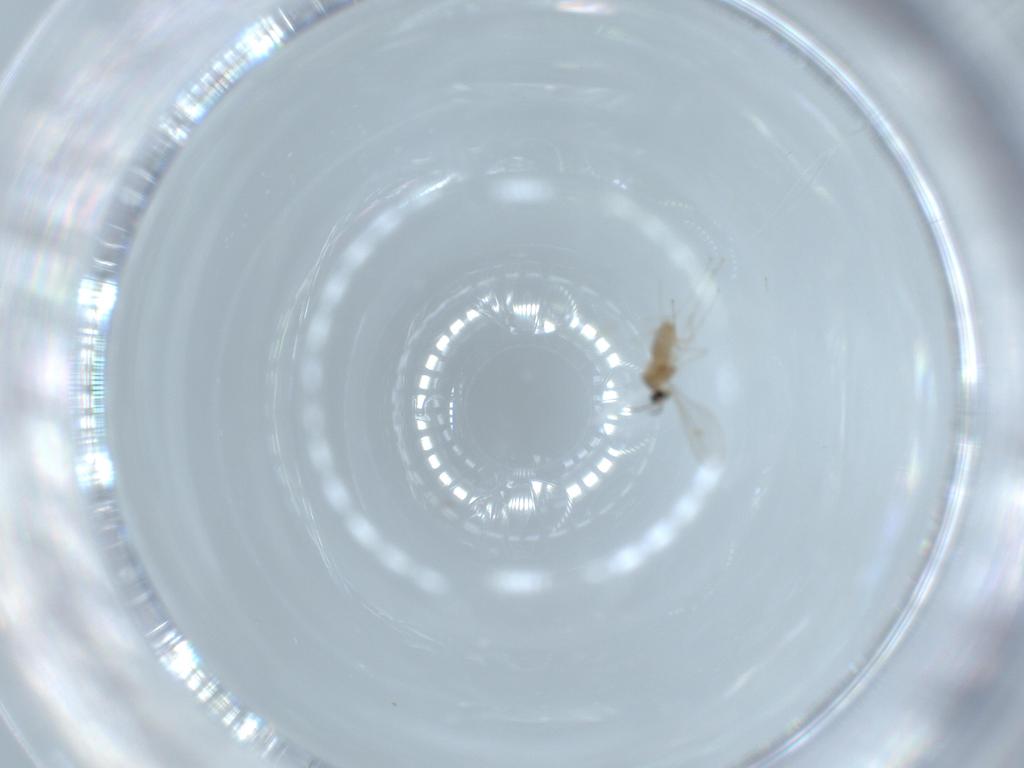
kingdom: Animalia
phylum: Arthropoda
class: Insecta
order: Diptera
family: Cecidomyiidae
